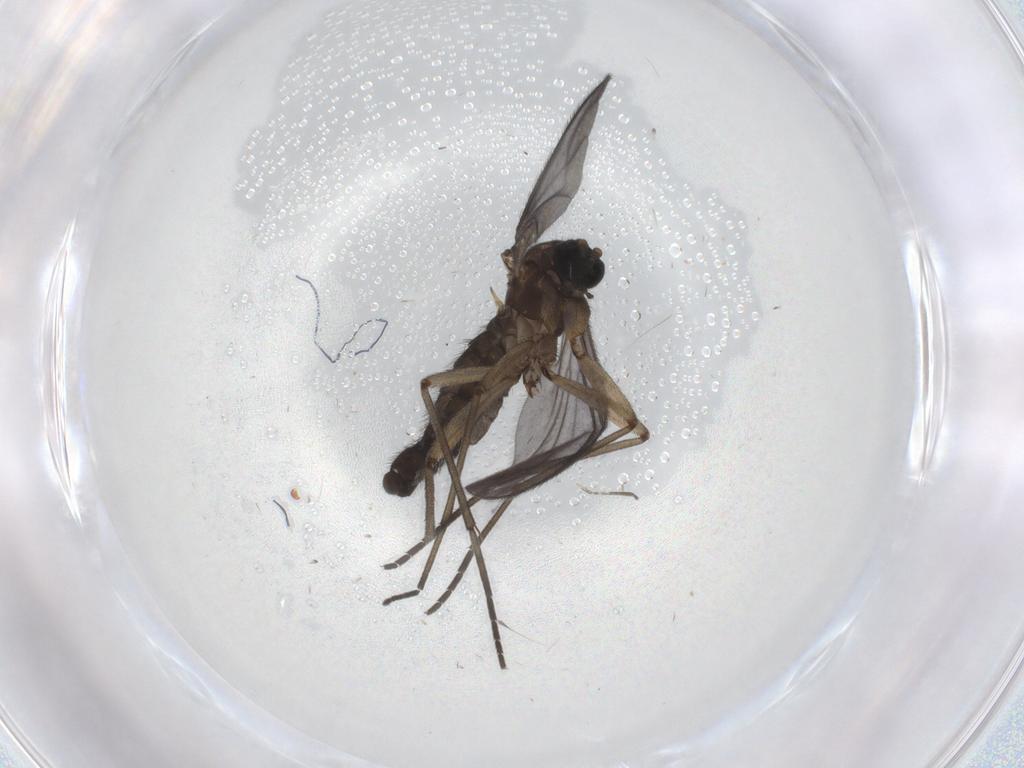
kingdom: Animalia
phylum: Arthropoda
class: Insecta
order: Diptera
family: Sciaridae
